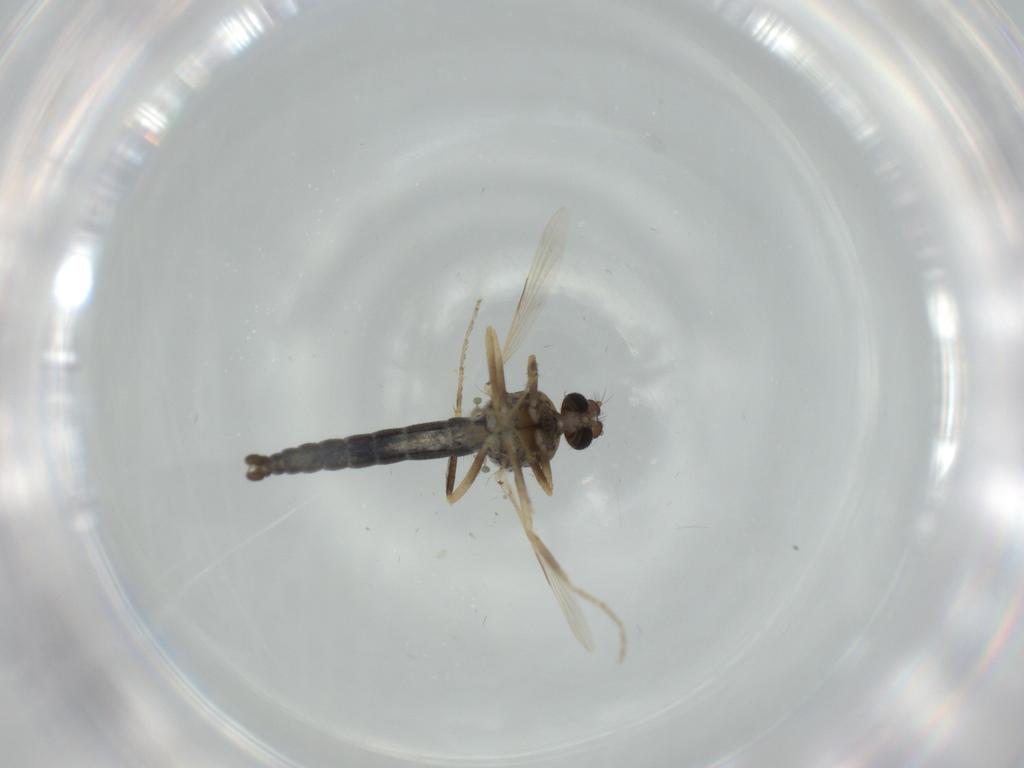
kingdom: Animalia
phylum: Arthropoda
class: Insecta
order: Diptera
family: Ceratopogonidae
